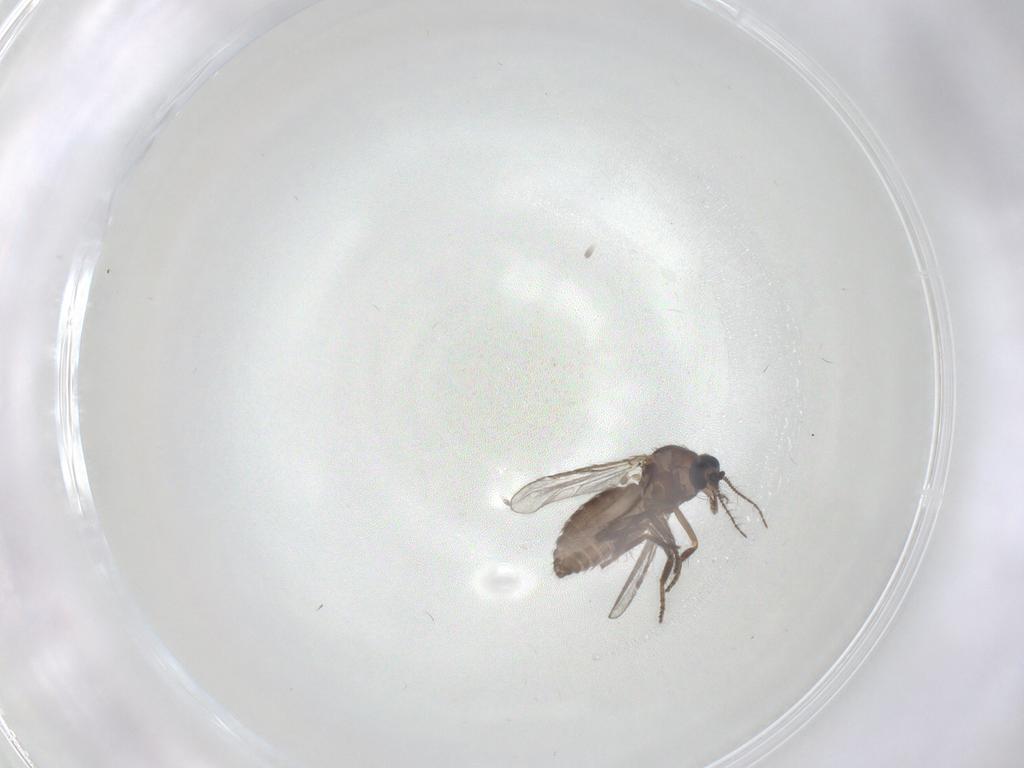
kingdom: Animalia
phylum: Arthropoda
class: Insecta
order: Diptera
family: Ceratopogonidae
